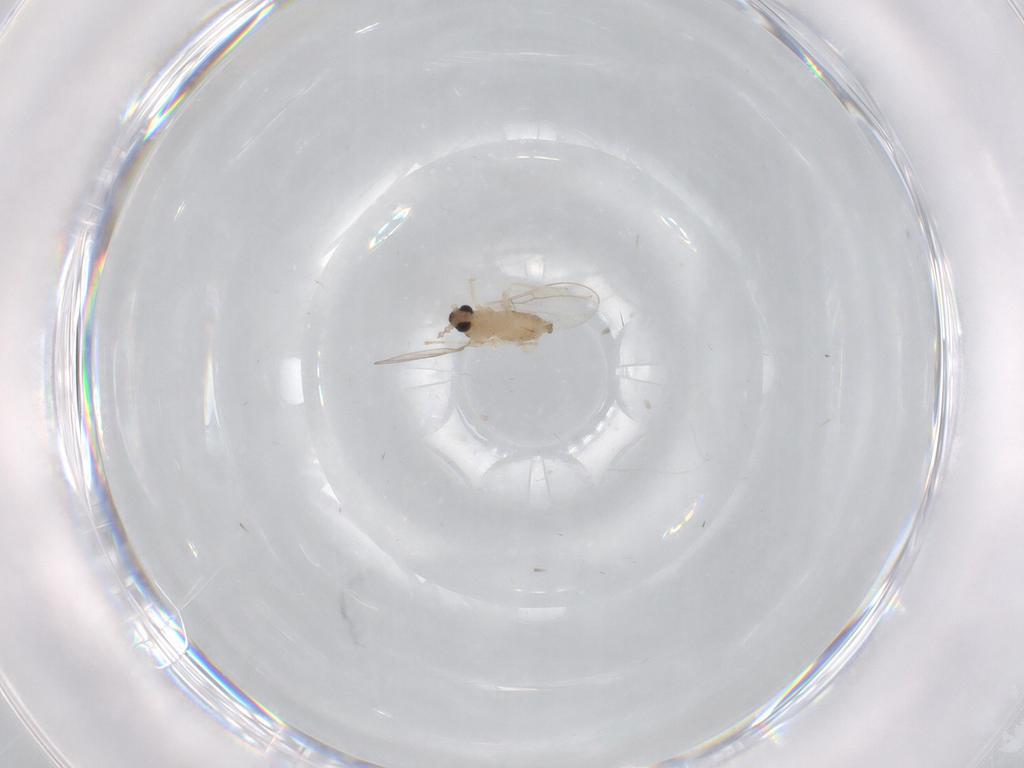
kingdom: Animalia
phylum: Arthropoda
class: Insecta
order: Diptera
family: Cecidomyiidae
